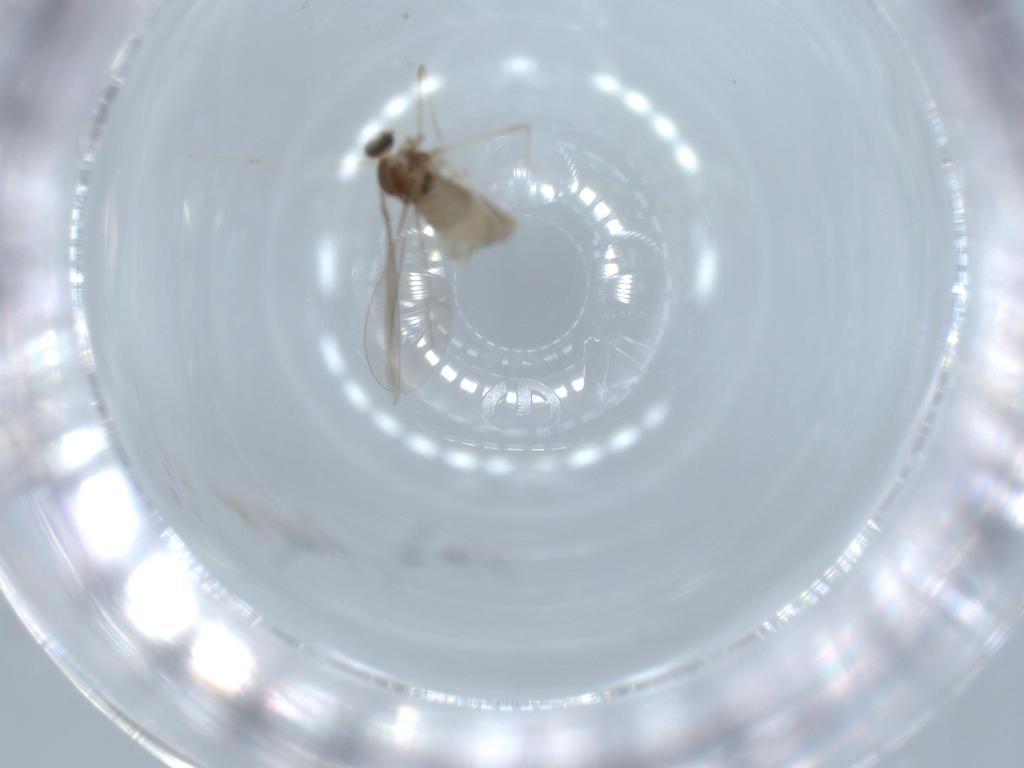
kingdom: Animalia
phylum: Arthropoda
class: Insecta
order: Diptera
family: Cecidomyiidae
